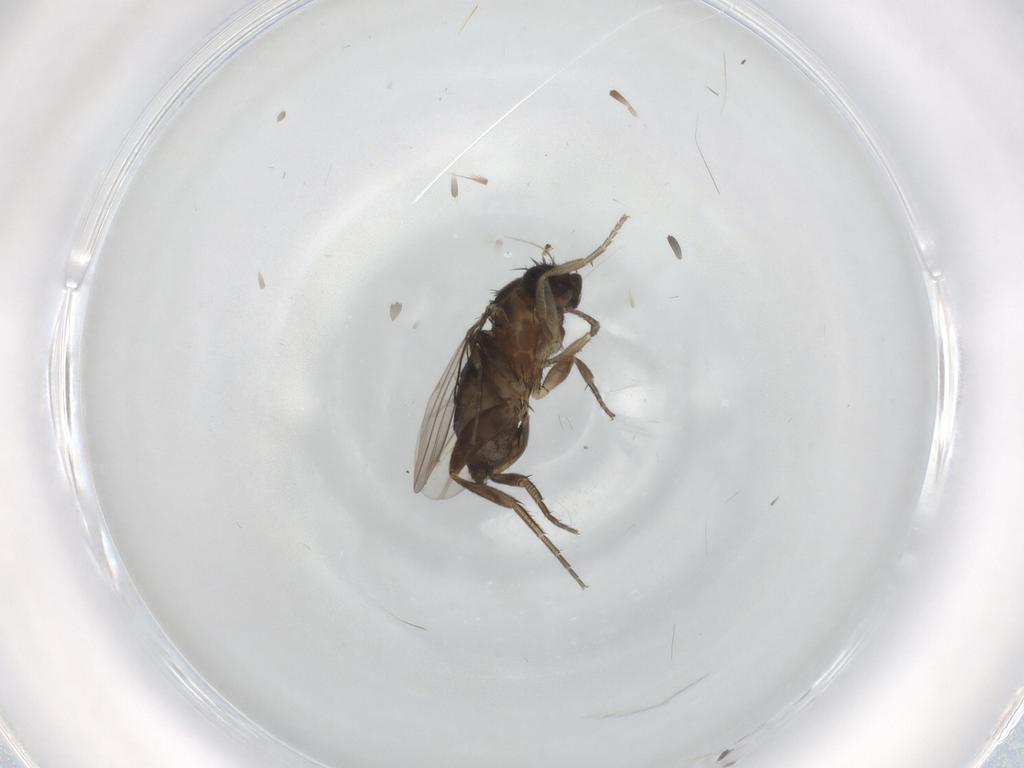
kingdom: Animalia
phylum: Arthropoda
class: Insecta
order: Diptera
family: Phoridae
